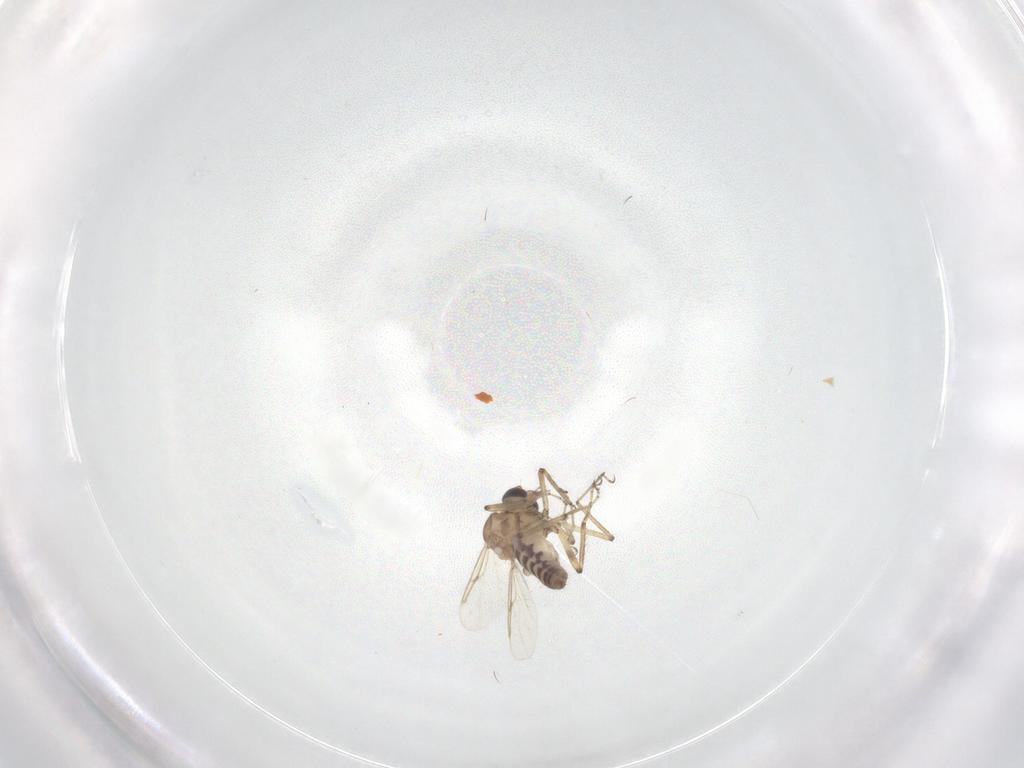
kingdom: Animalia
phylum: Arthropoda
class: Insecta
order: Diptera
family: Ceratopogonidae
